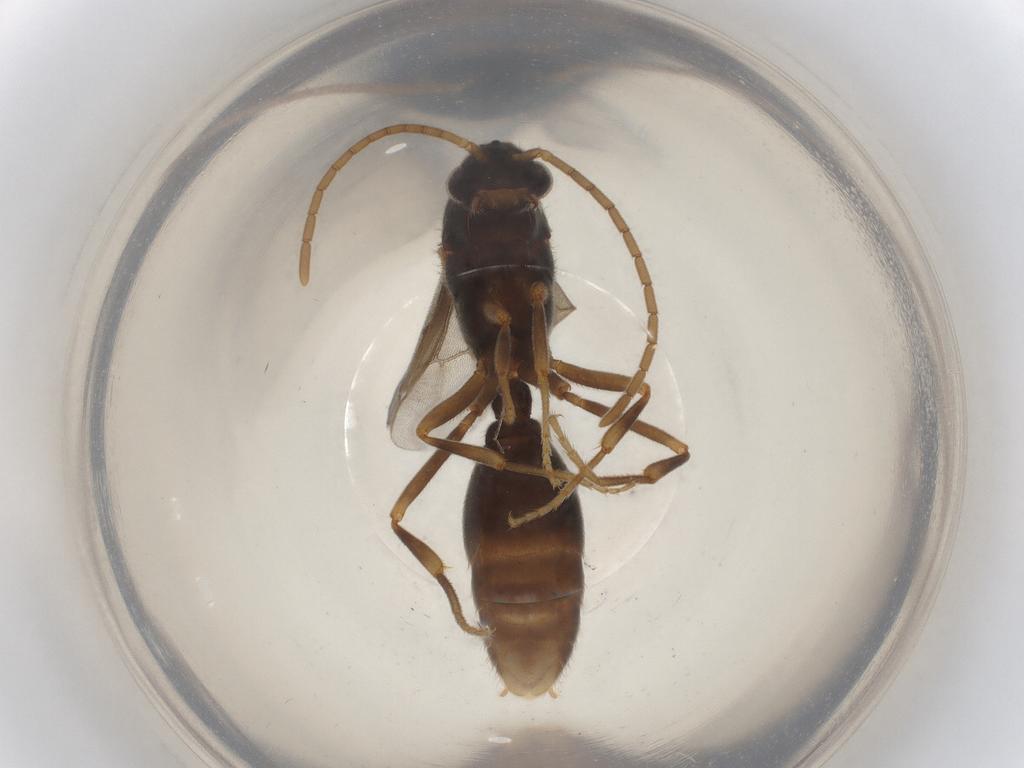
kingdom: Animalia
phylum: Arthropoda
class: Insecta
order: Hymenoptera
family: Formicidae
